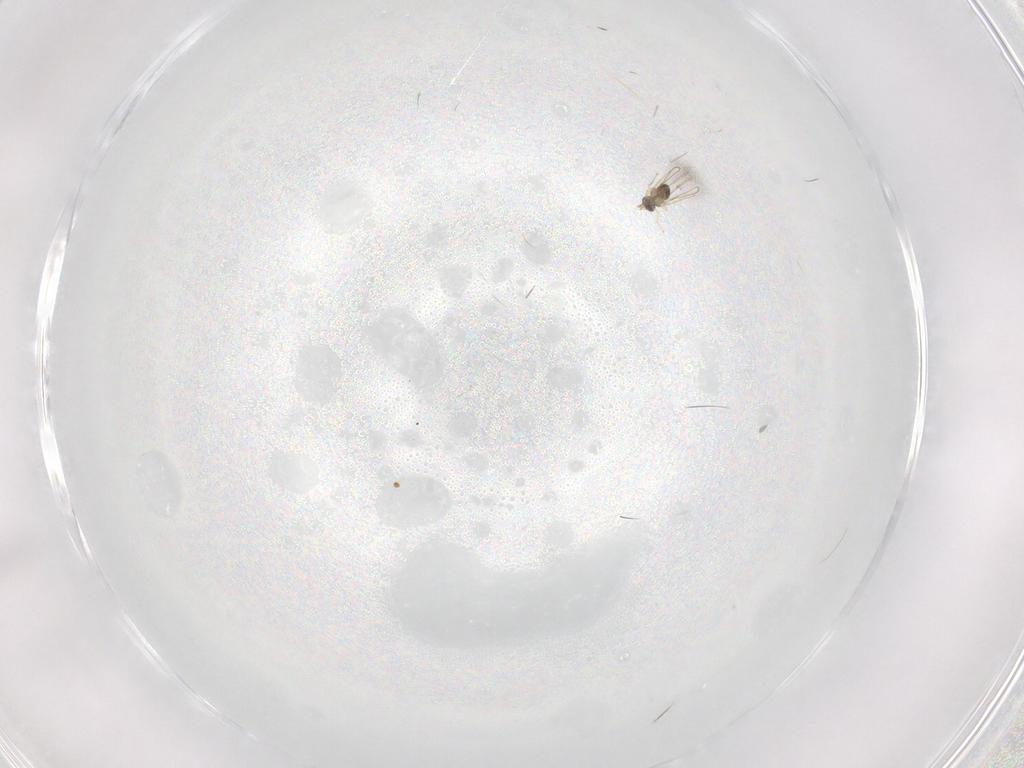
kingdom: Animalia
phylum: Arthropoda
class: Insecta
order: Hymenoptera
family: Mymaridae
